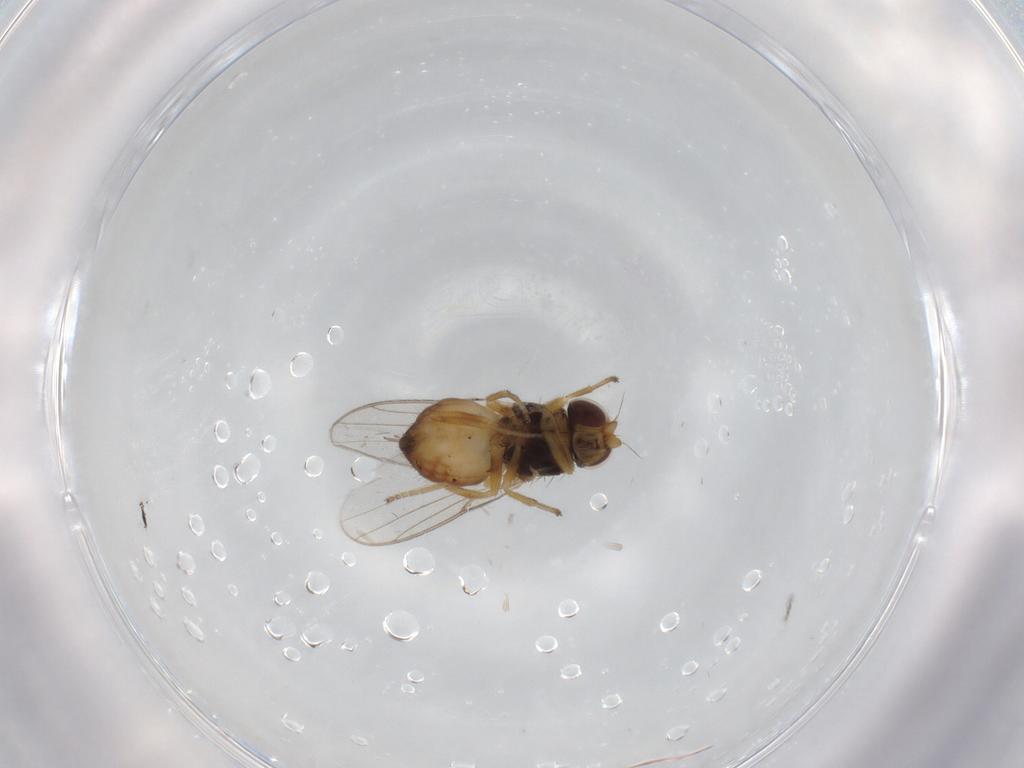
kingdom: Animalia
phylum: Arthropoda
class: Insecta
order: Diptera
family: Chloropidae
